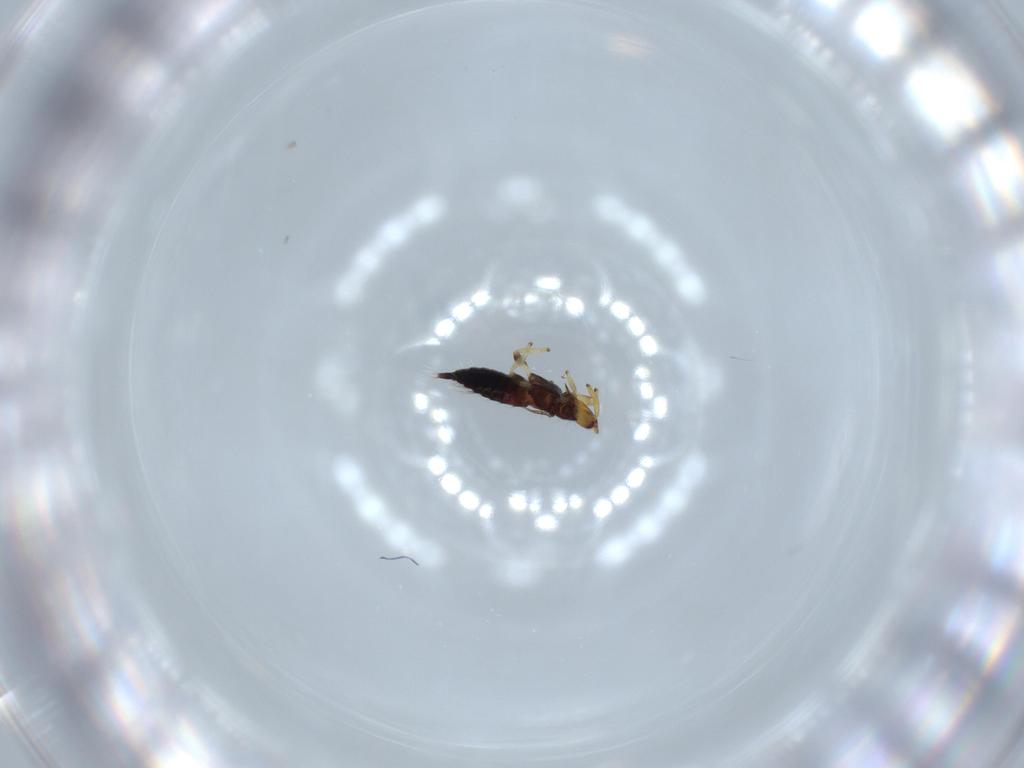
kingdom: Animalia
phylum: Arthropoda
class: Insecta
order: Thysanoptera
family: Phlaeothripidae
